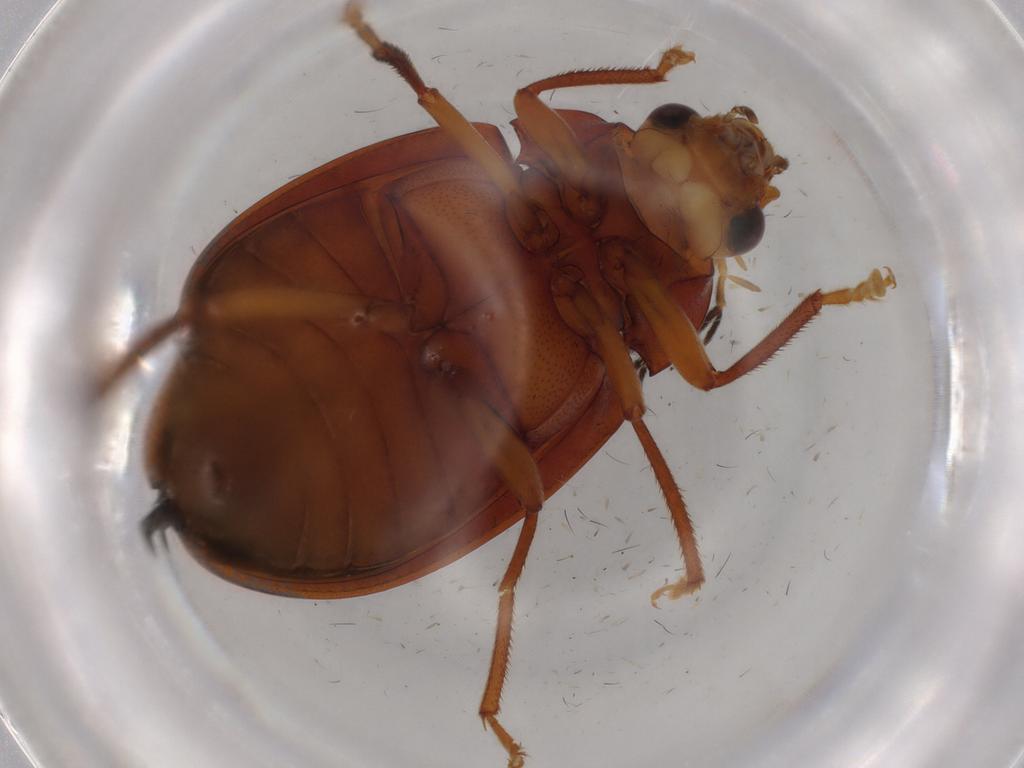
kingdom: Animalia
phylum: Arthropoda
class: Insecta
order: Coleoptera
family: Ptilodactylidae
